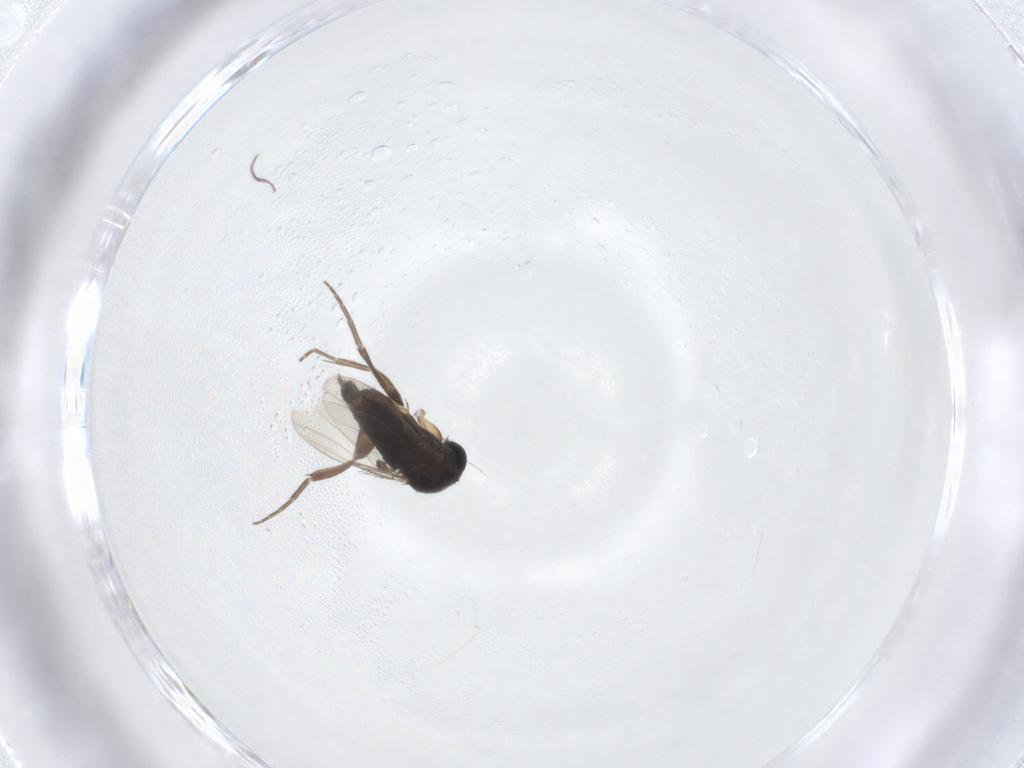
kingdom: Animalia
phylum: Arthropoda
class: Insecta
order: Diptera
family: Phoridae
